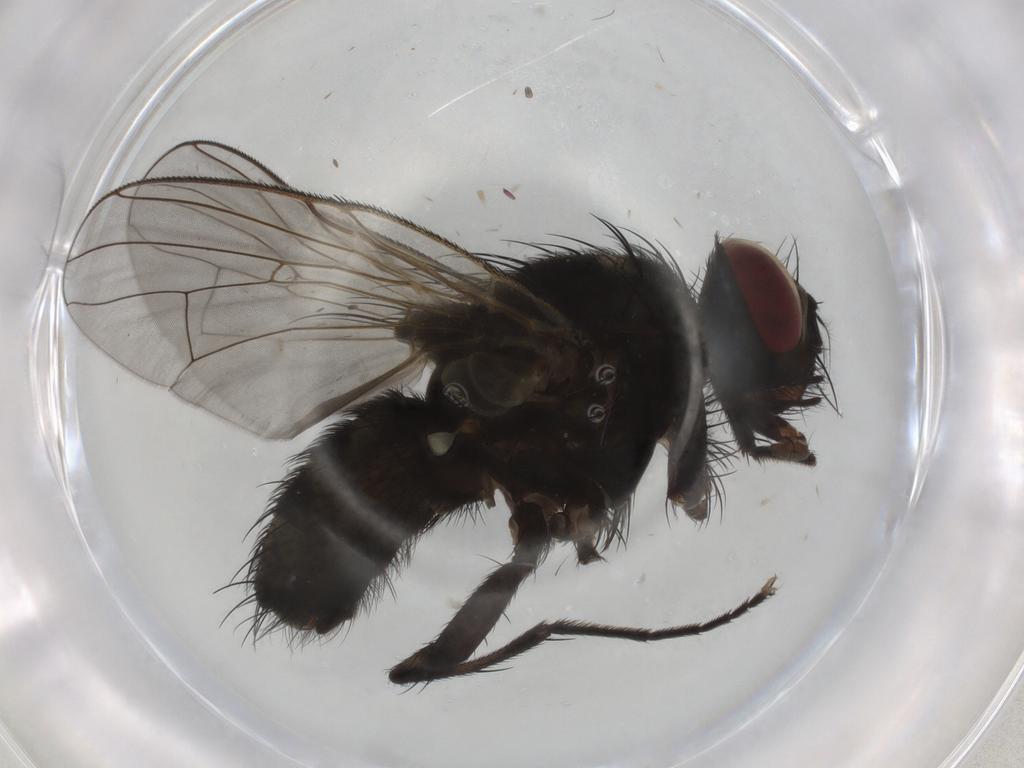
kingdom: Animalia
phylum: Arthropoda
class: Insecta
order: Diptera
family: Muscidae
